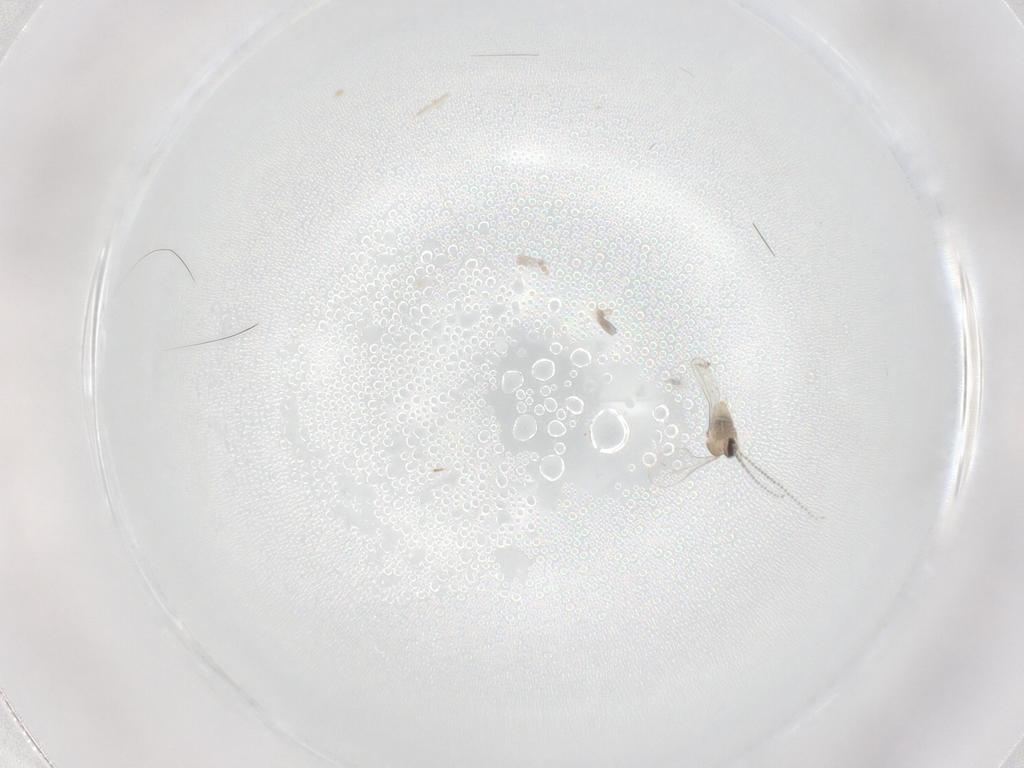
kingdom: Animalia
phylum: Arthropoda
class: Insecta
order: Diptera
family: Cecidomyiidae
